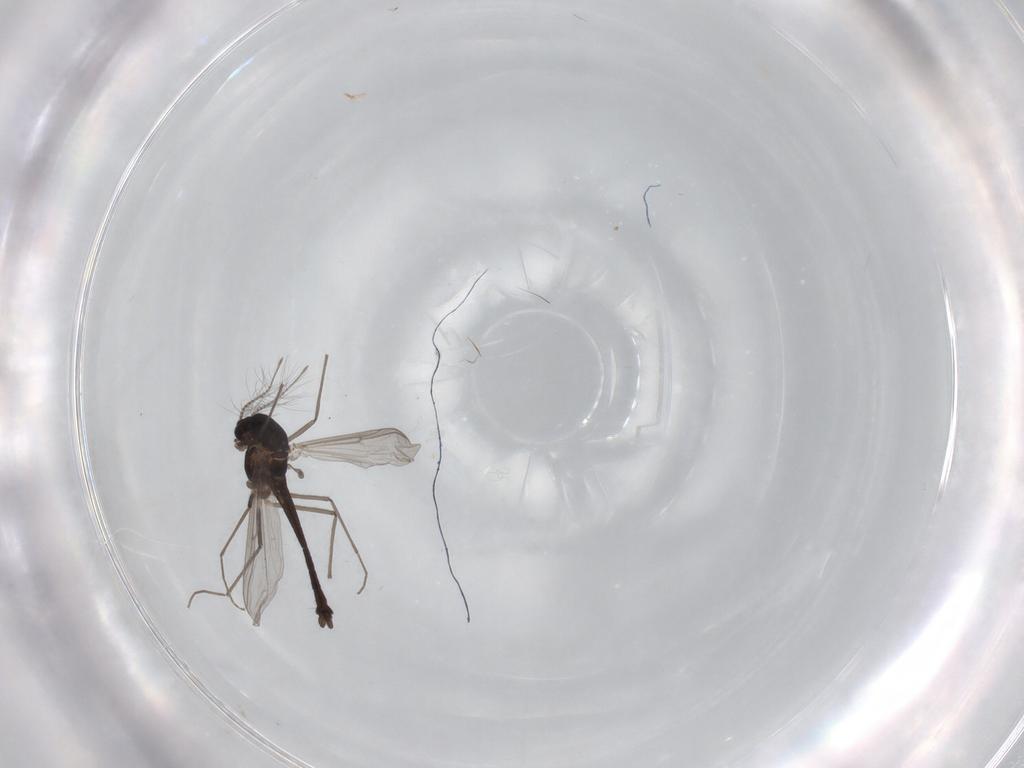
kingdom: Animalia
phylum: Arthropoda
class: Insecta
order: Diptera
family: Chironomidae
